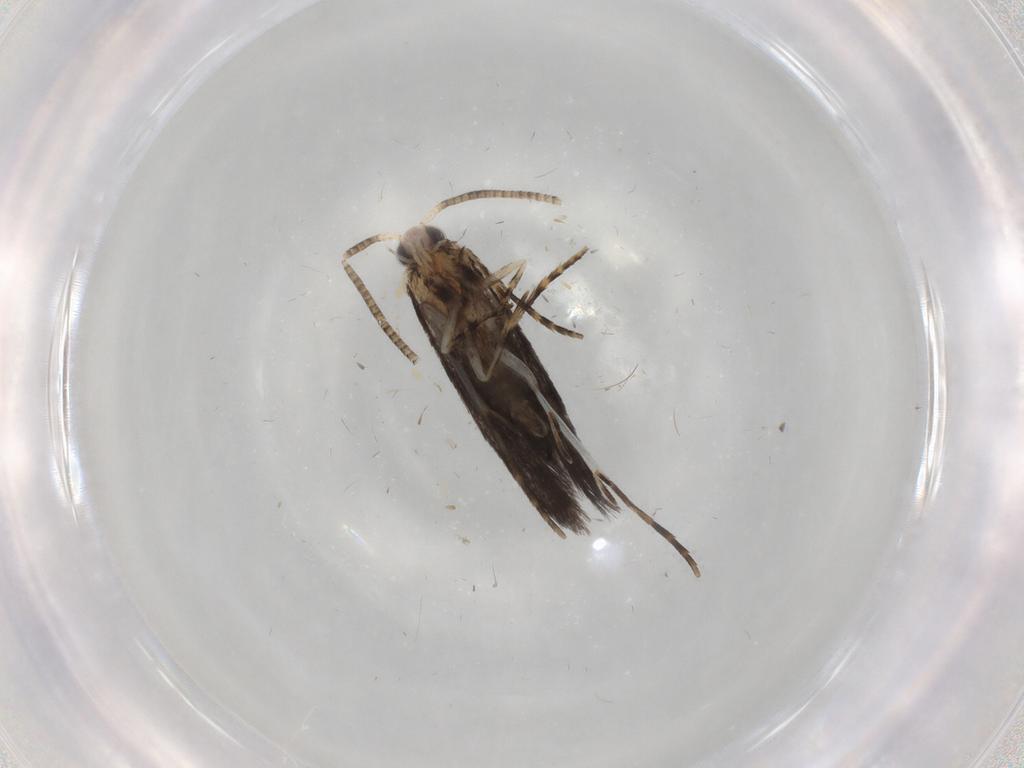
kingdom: Animalia
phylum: Arthropoda
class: Insecta
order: Lepidoptera
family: Tineidae
